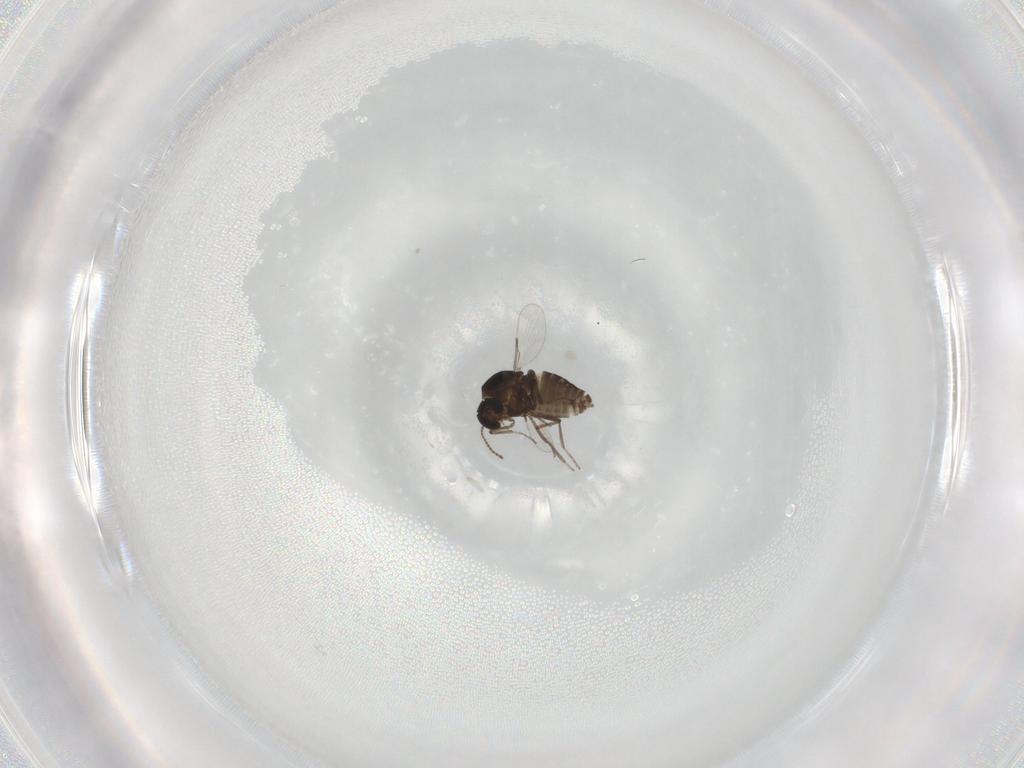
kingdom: Animalia
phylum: Arthropoda
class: Insecta
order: Diptera
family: Ceratopogonidae
